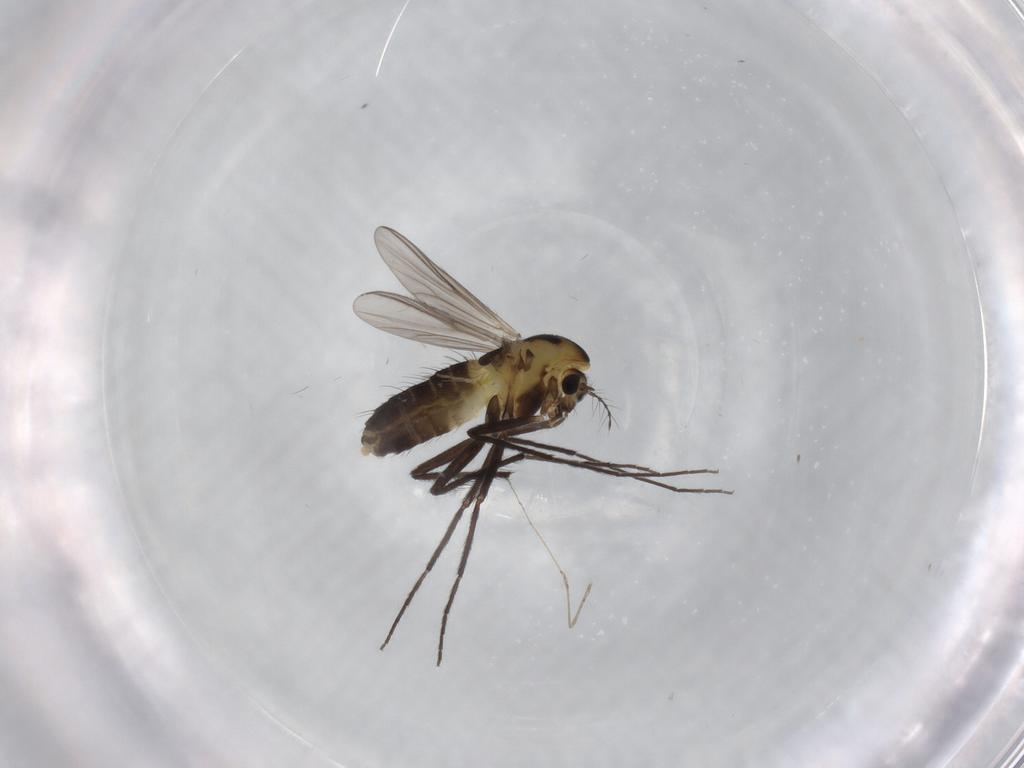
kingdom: Animalia
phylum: Arthropoda
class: Insecta
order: Diptera
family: Chironomidae
